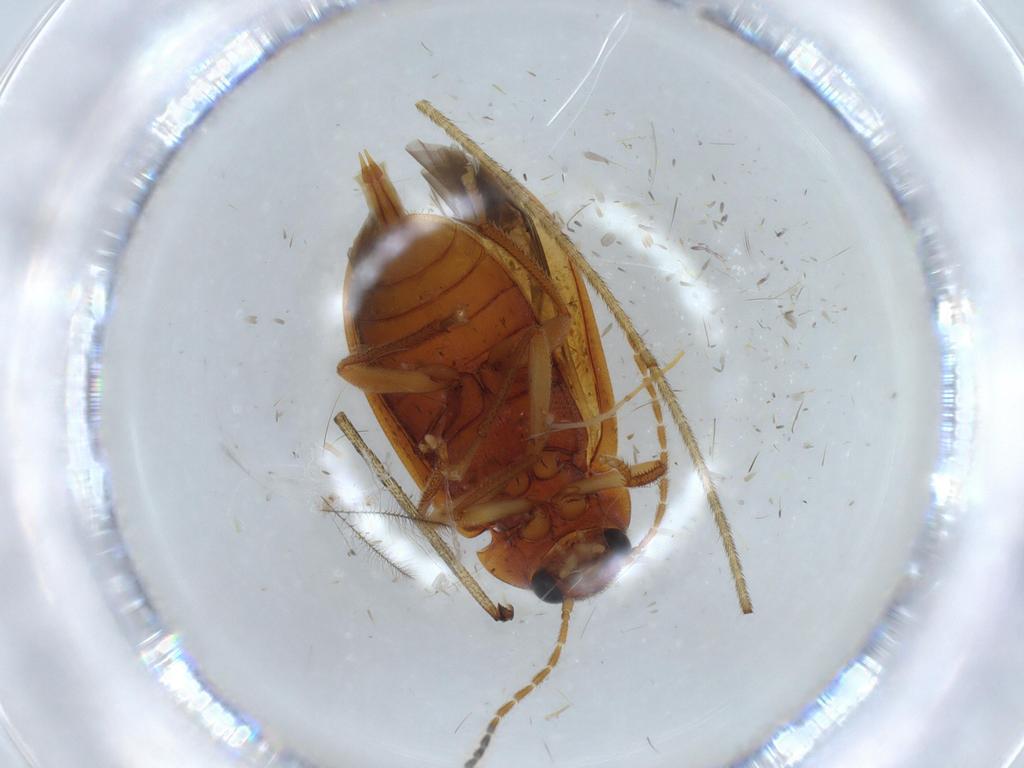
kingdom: Animalia
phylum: Arthropoda
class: Insecta
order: Coleoptera
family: Ptilodactylidae
